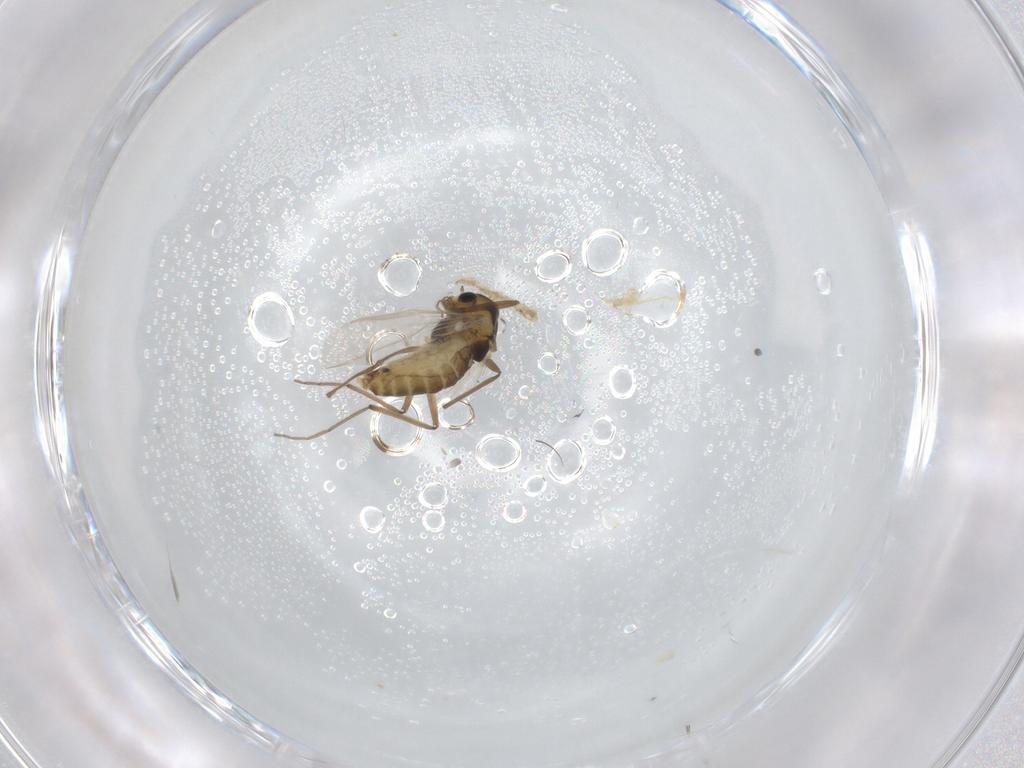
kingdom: Animalia
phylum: Arthropoda
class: Insecta
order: Diptera
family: Chironomidae
